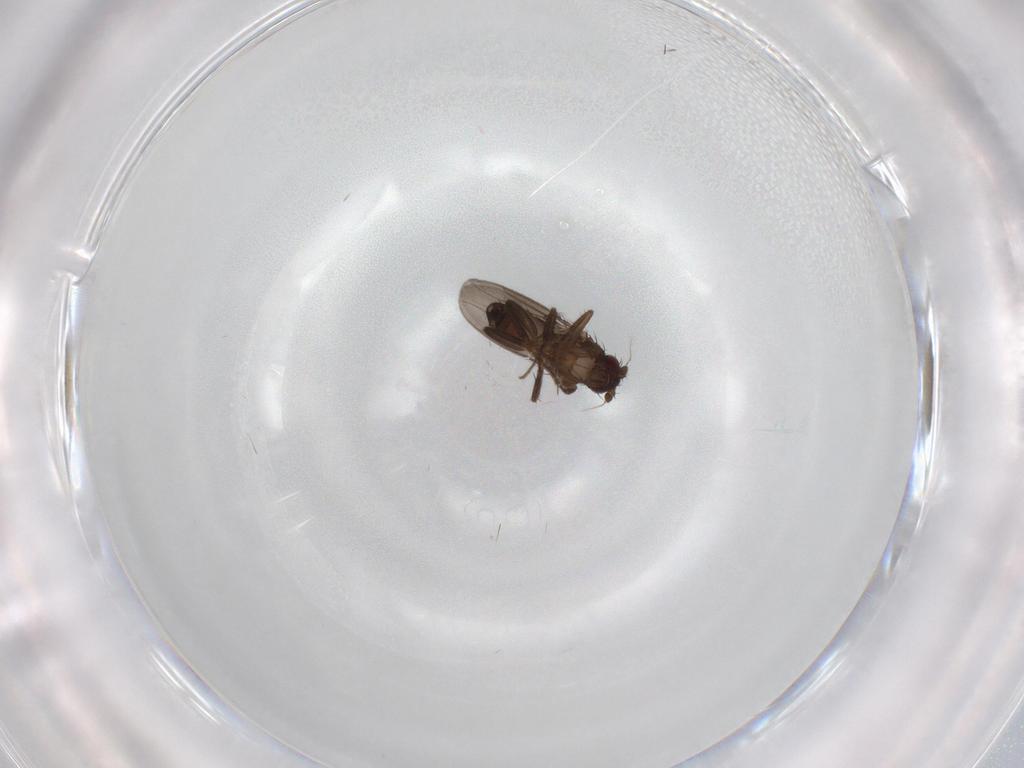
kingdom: Animalia
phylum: Arthropoda
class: Insecta
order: Diptera
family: Sphaeroceridae
